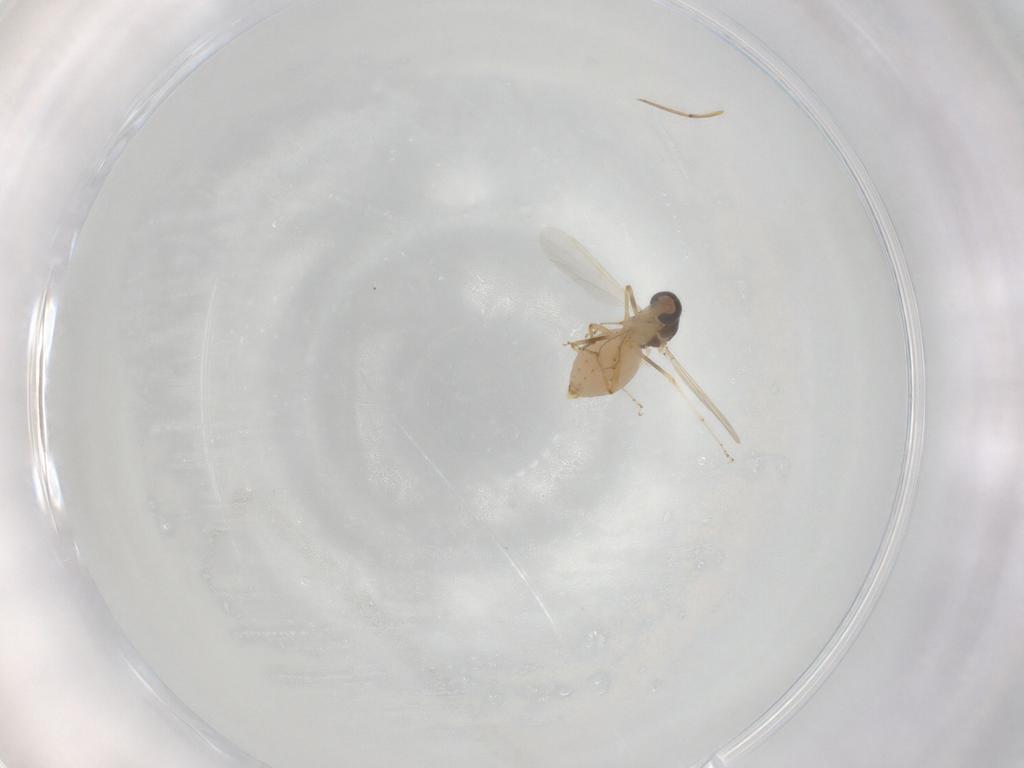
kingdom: Animalia
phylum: Arthropoda
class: Insecta
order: Diptera
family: Ceratopogonidae
